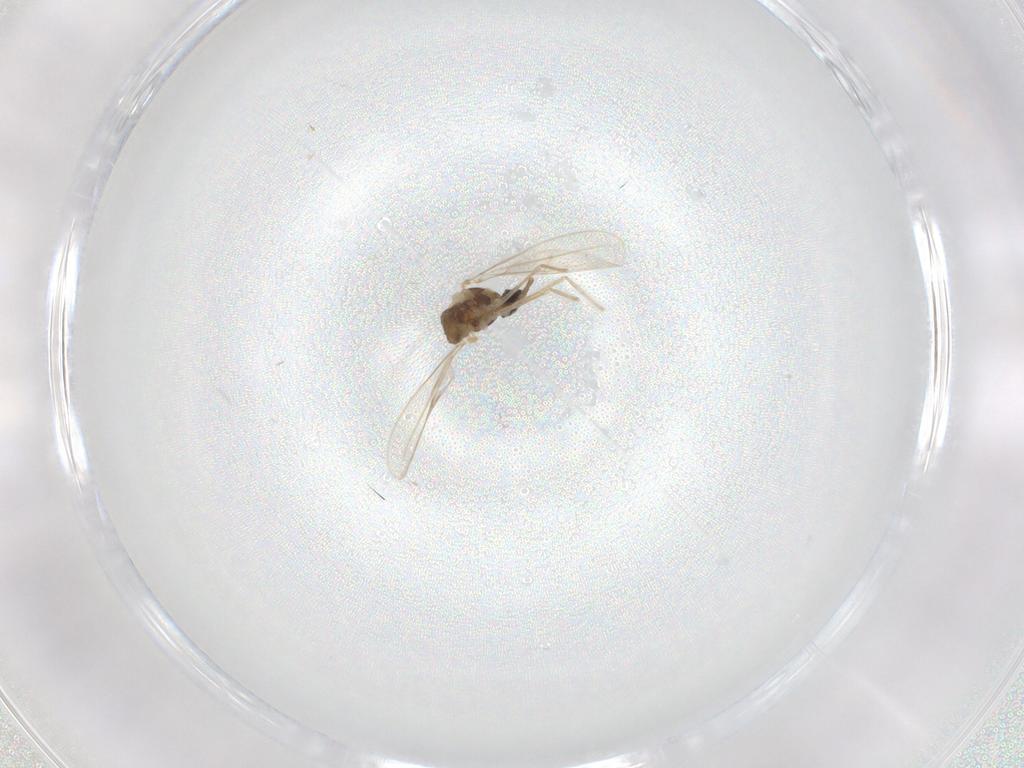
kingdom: Animalia
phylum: Arthropoda
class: Insecta
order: Diptera
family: Cecidomyiidae
